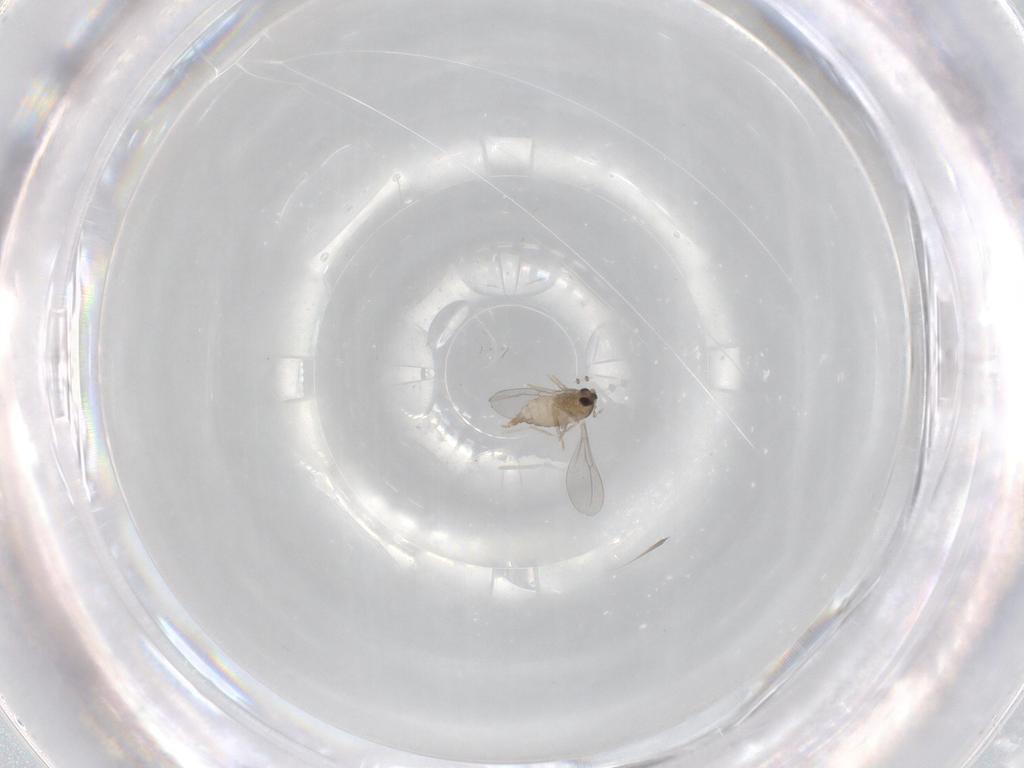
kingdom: Animalia
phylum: Arthropoda
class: Insecta
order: Diptera
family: Cecidomyiidae
